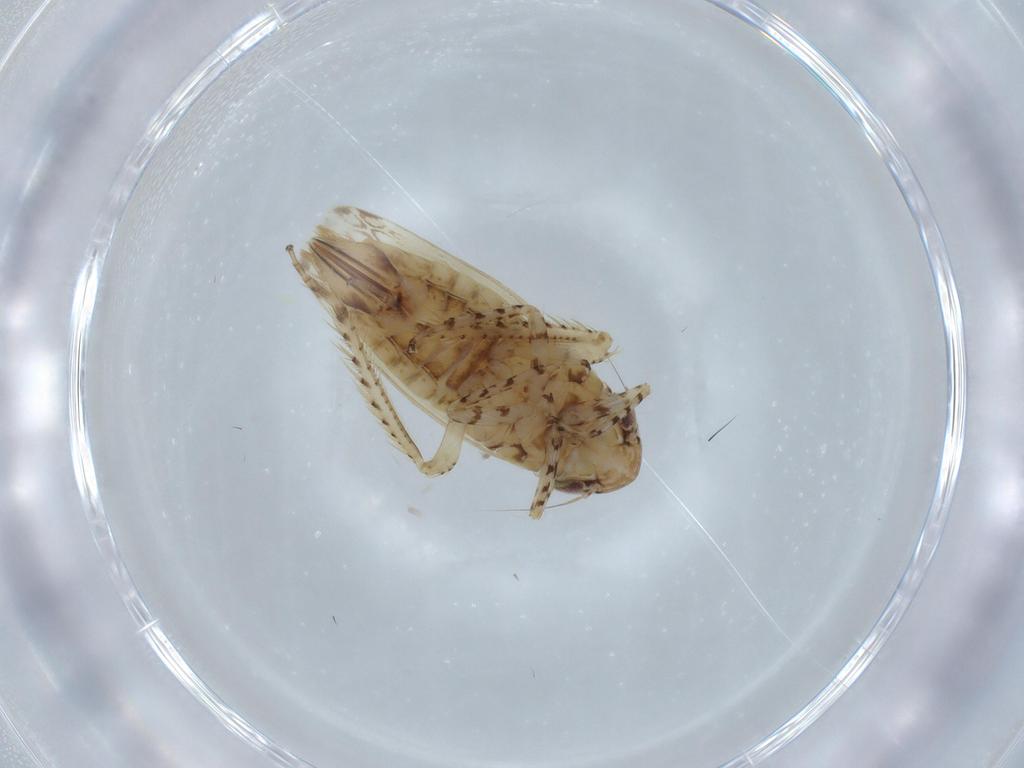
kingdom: Animalia
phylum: Arthropoda
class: Insecta
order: Hemiptera
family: Cicadellidae
